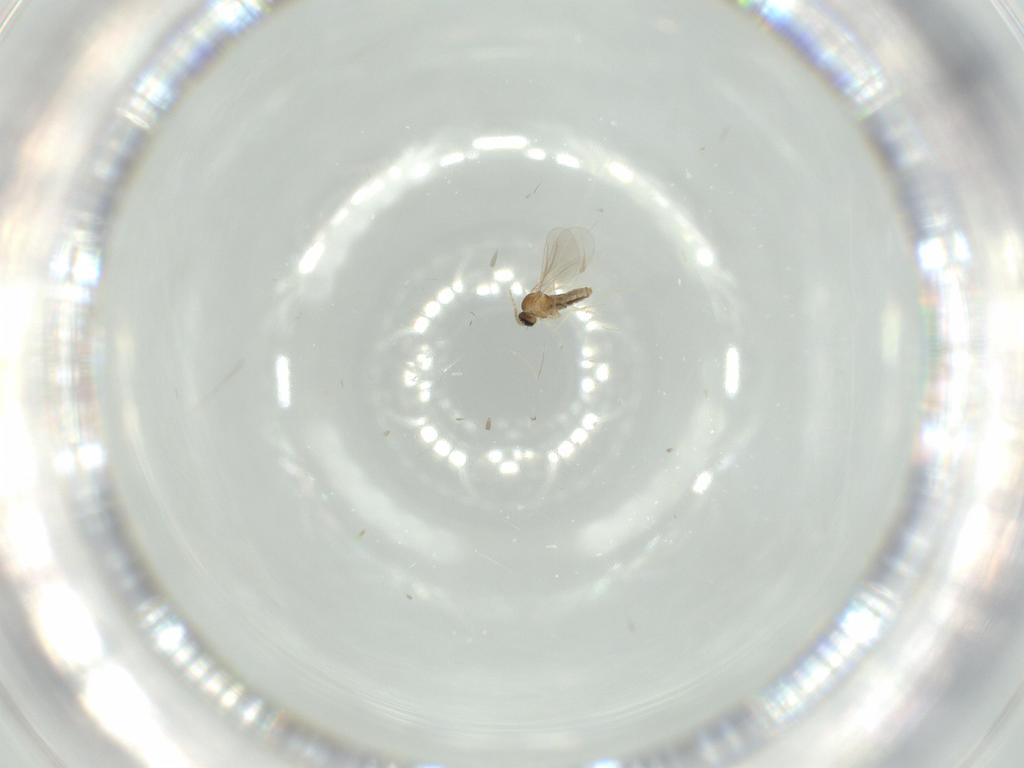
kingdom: Animalia
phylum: Arthropoda
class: Insecta
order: Diptera
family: Cecidomyiidae
